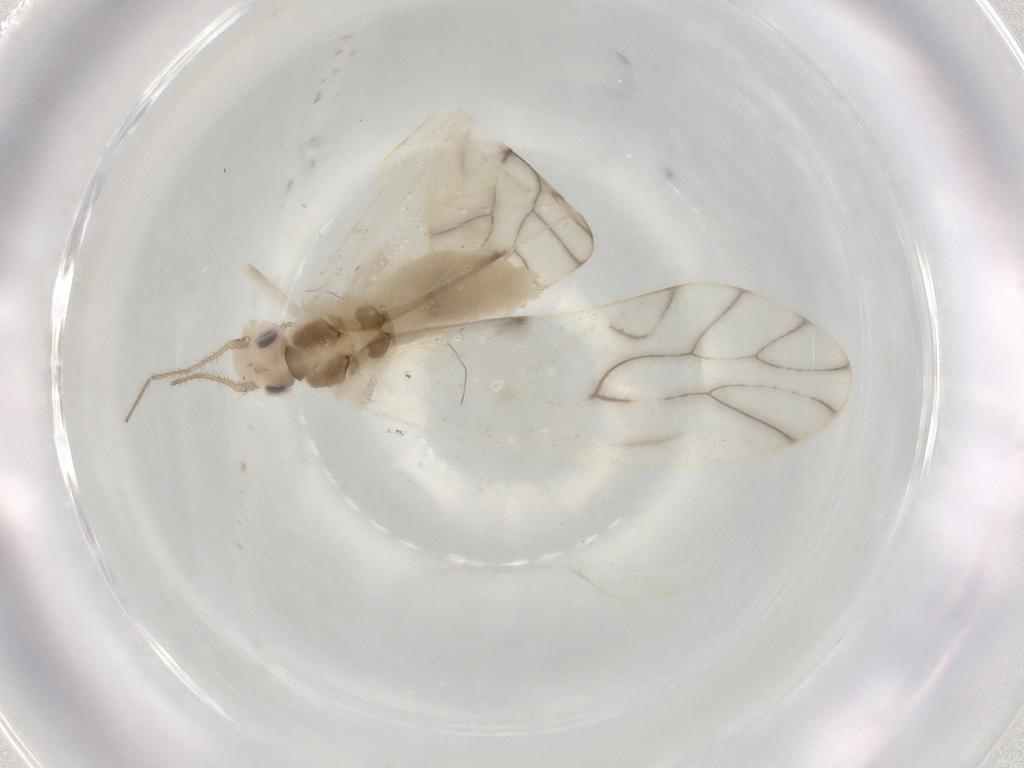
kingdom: Animalia
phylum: Arthropoda
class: Insecta
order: Psocodea
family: Caeciliusidae
